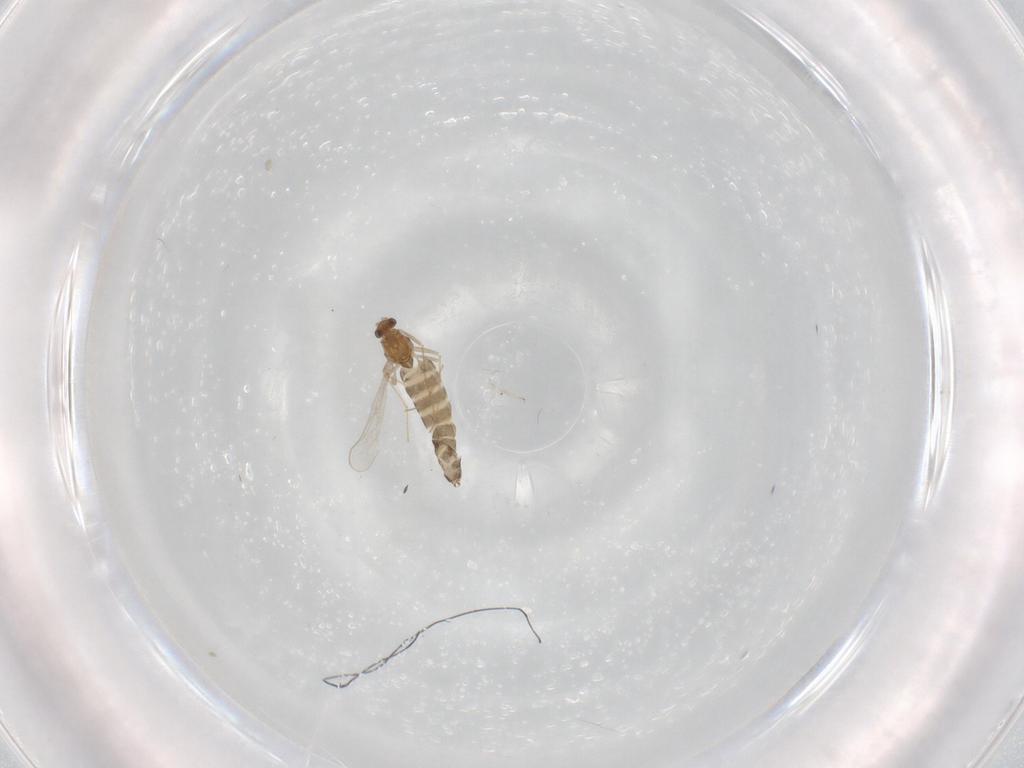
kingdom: Animalia
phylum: Arthropoda
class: Insecta
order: Diptera
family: Chironomidae
